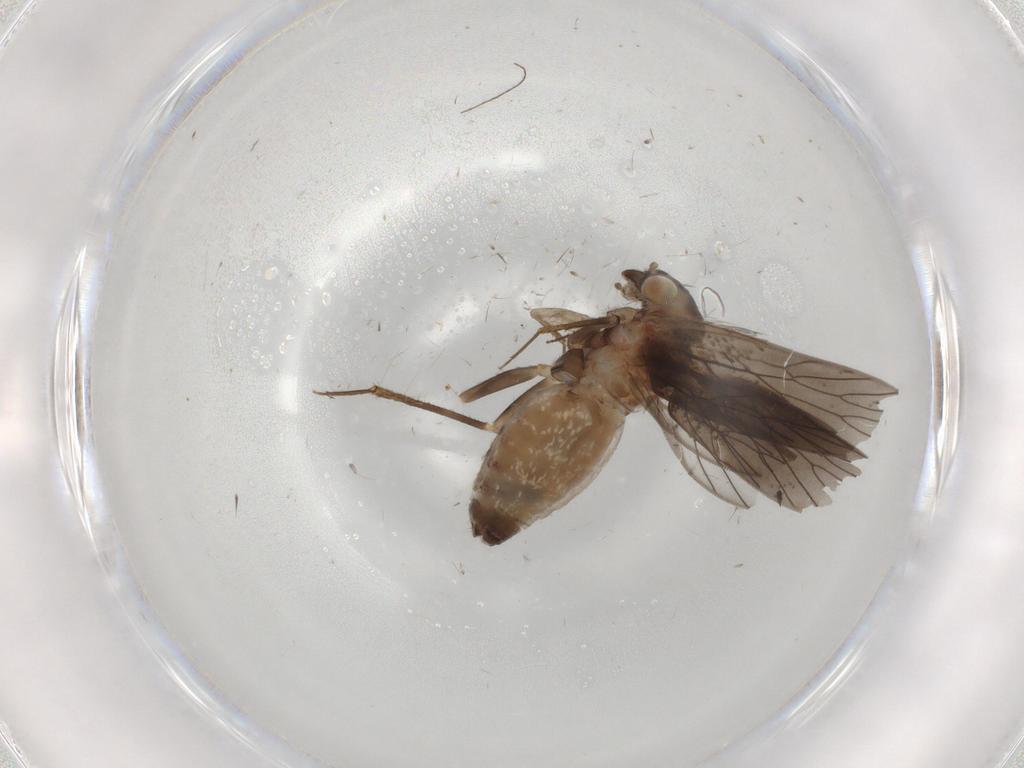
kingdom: Animalia
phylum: Arthropoda
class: Insecta
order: Psocodea
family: Lepidopsocidae
